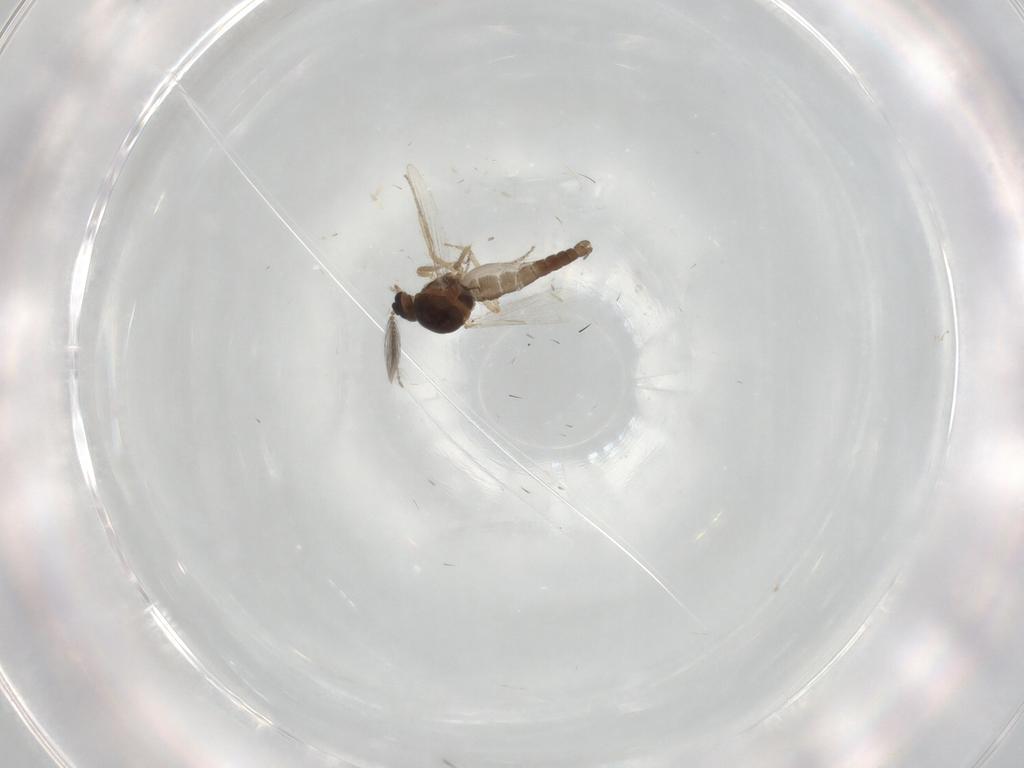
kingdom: Animalia
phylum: Arthropoda
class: Insecta
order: Diptera
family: Ceratopogonidae
